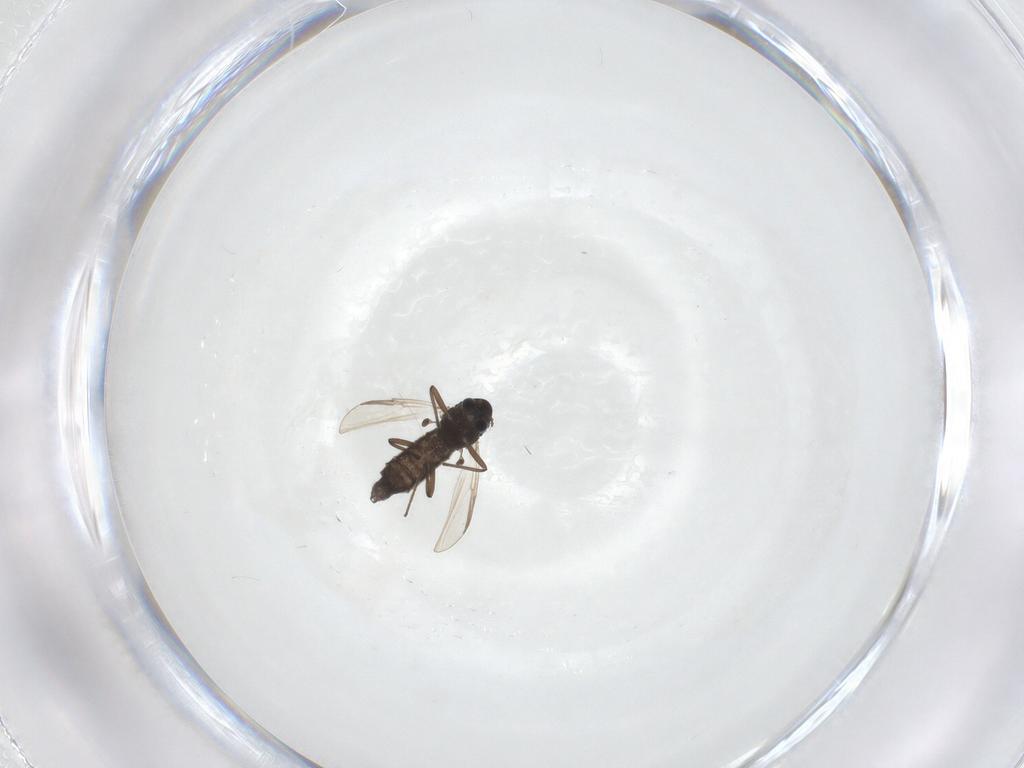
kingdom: Animalia
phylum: Arthropoda
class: Insecta
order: Diptera
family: Chironomidae
